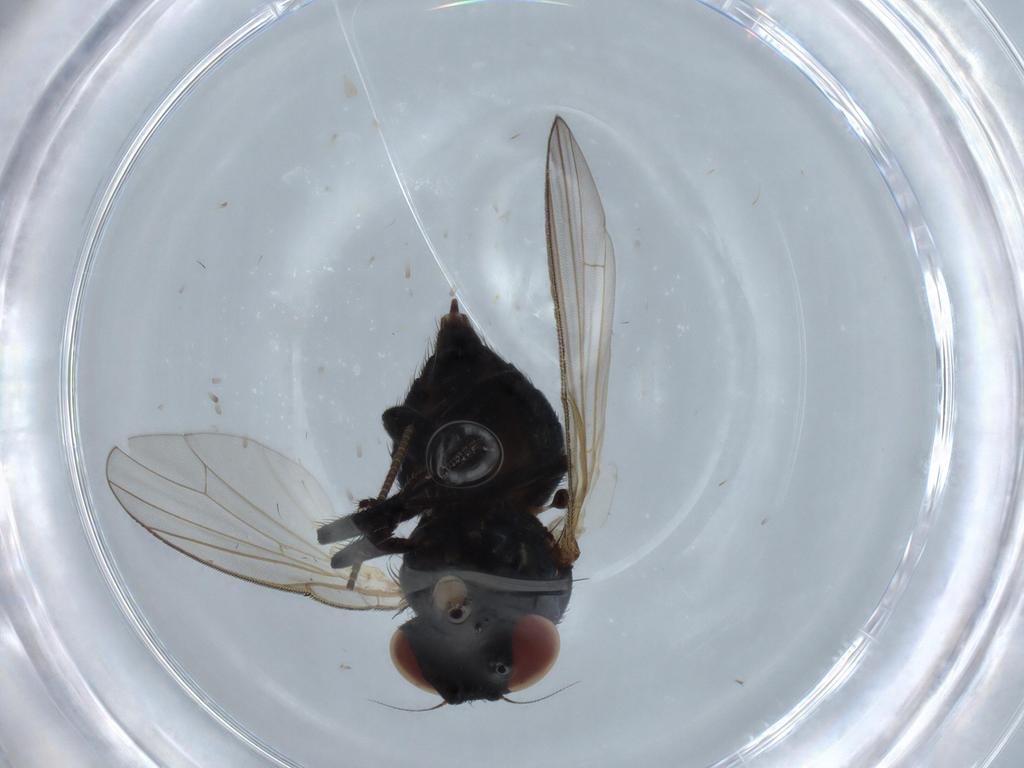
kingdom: Animalia
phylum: Arthropoda
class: Insecta
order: Diptera
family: Lonchaeidae
